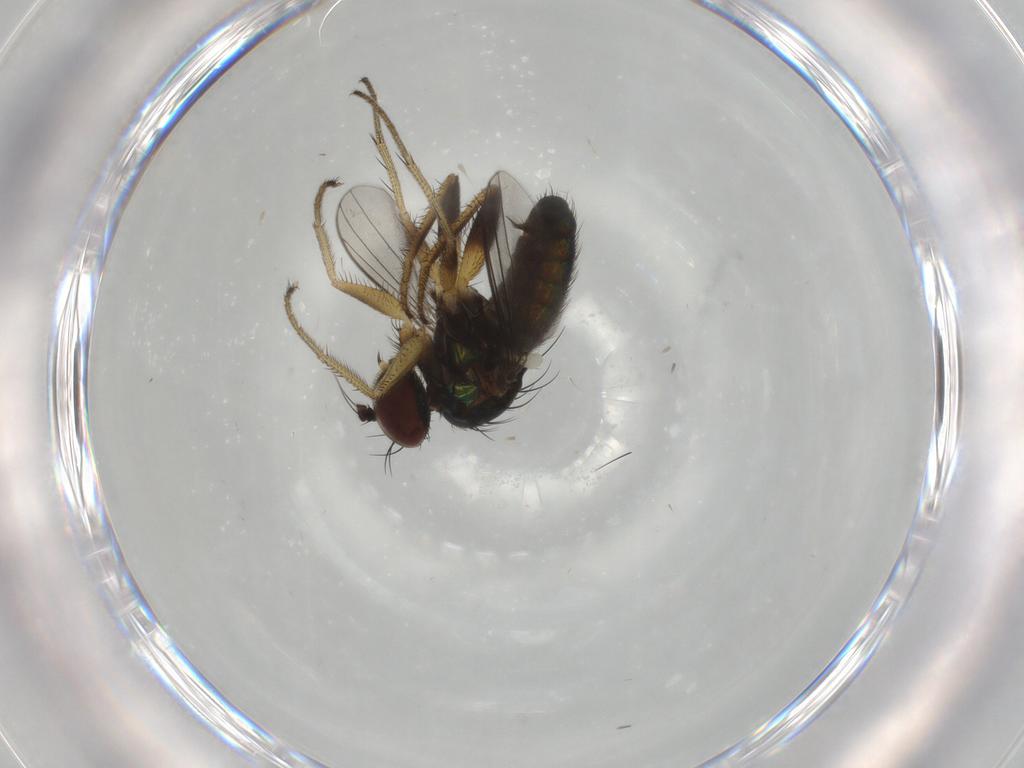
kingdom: Animalia
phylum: Arthropoda
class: Insecta
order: Diptera
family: Dolichopodidae
